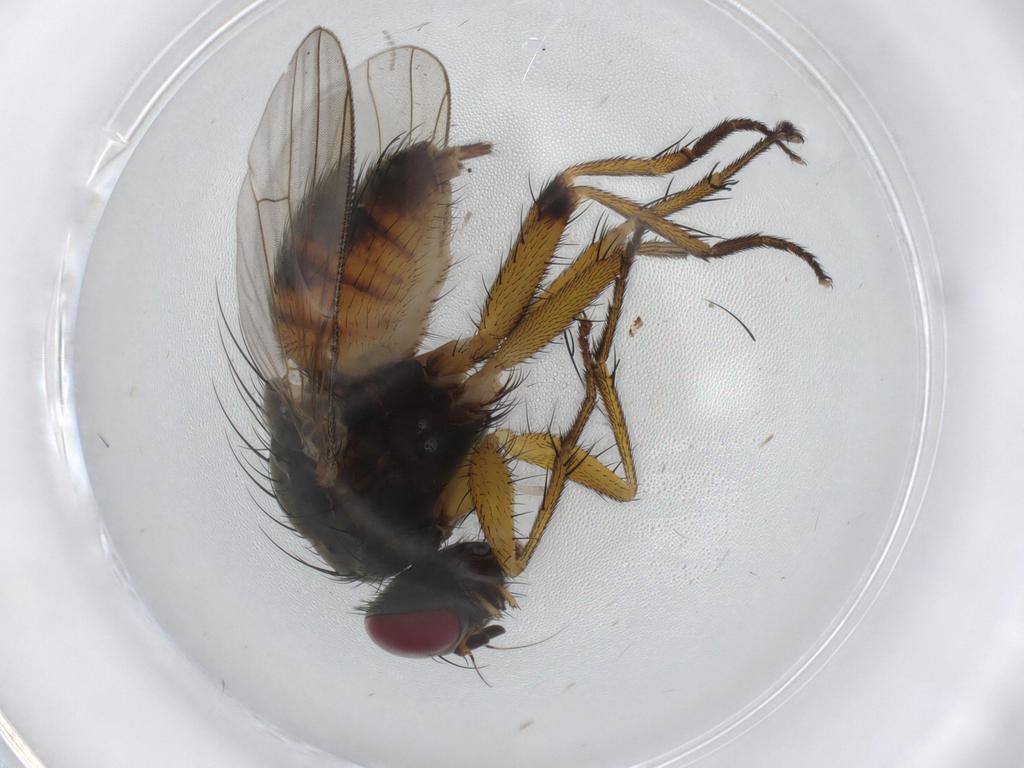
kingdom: Animalia
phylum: Arthropoda
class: Insecta
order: Diptera
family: Muscidae
